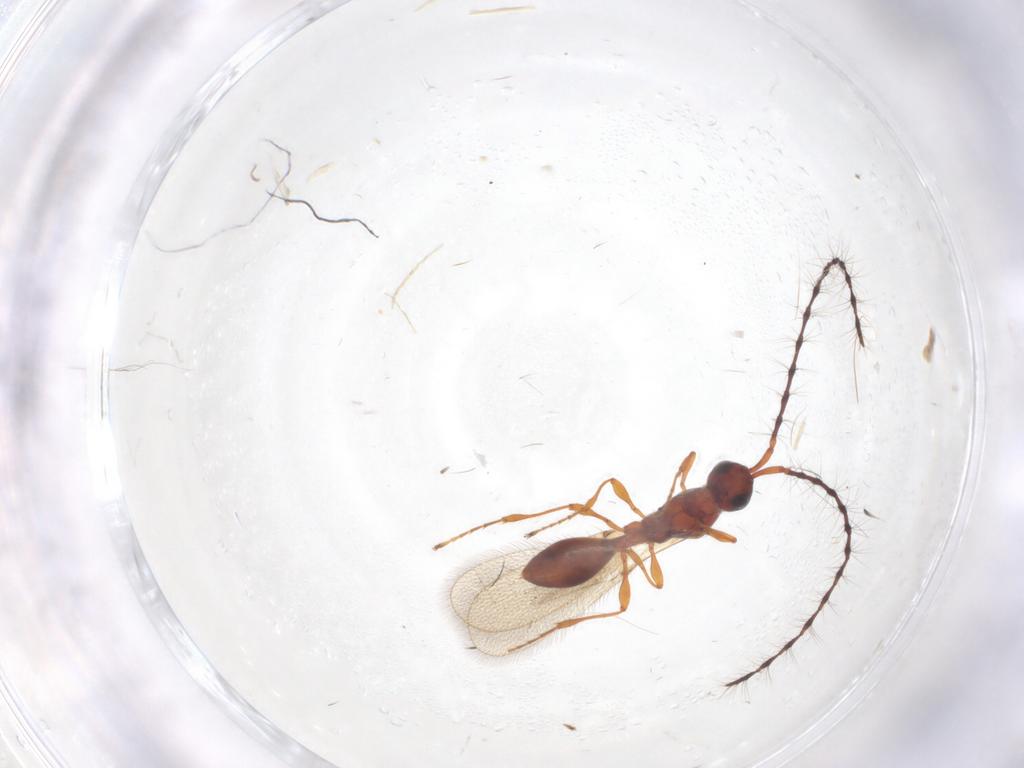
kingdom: Animalia
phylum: Arthropoda
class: Insecta
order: Hymenoptera
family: Diapriidae
